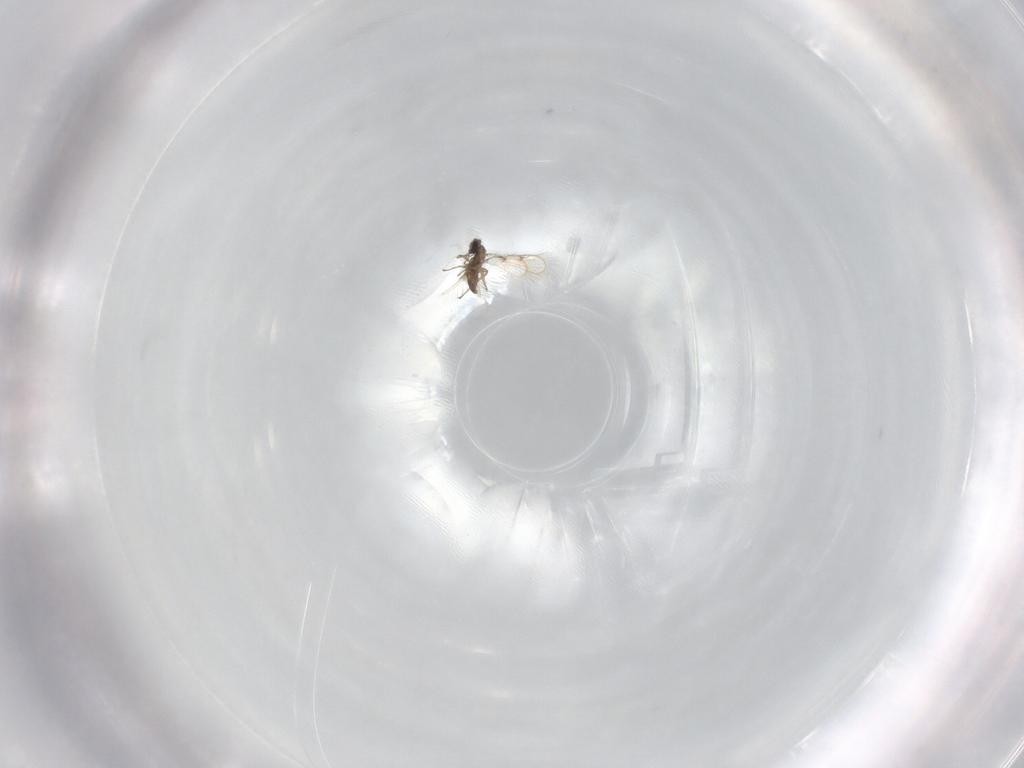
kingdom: Animalia
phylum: Arthropoda
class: Insecta
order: Hymenoptera
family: Trichogrammatidae
